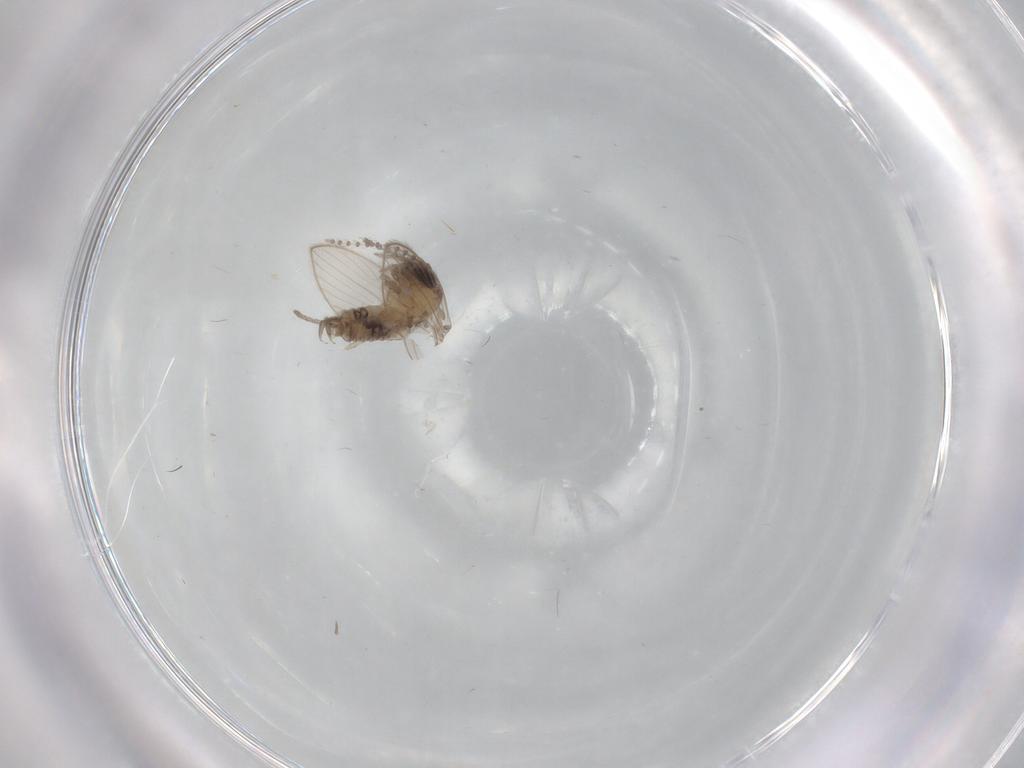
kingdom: Animalia
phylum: Arthropoda
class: Insecta
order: Diptera
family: Psychodidae
